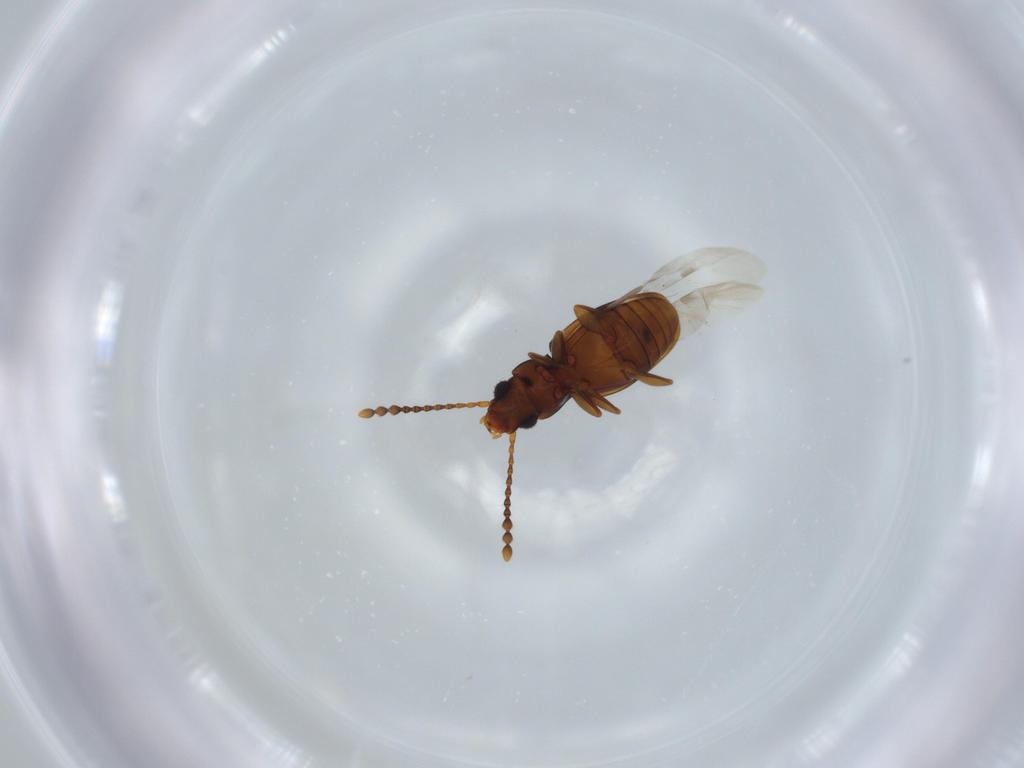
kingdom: Animalia
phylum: Arthropoda
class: Insecta
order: Coleoptera
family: Laemophloeidae
